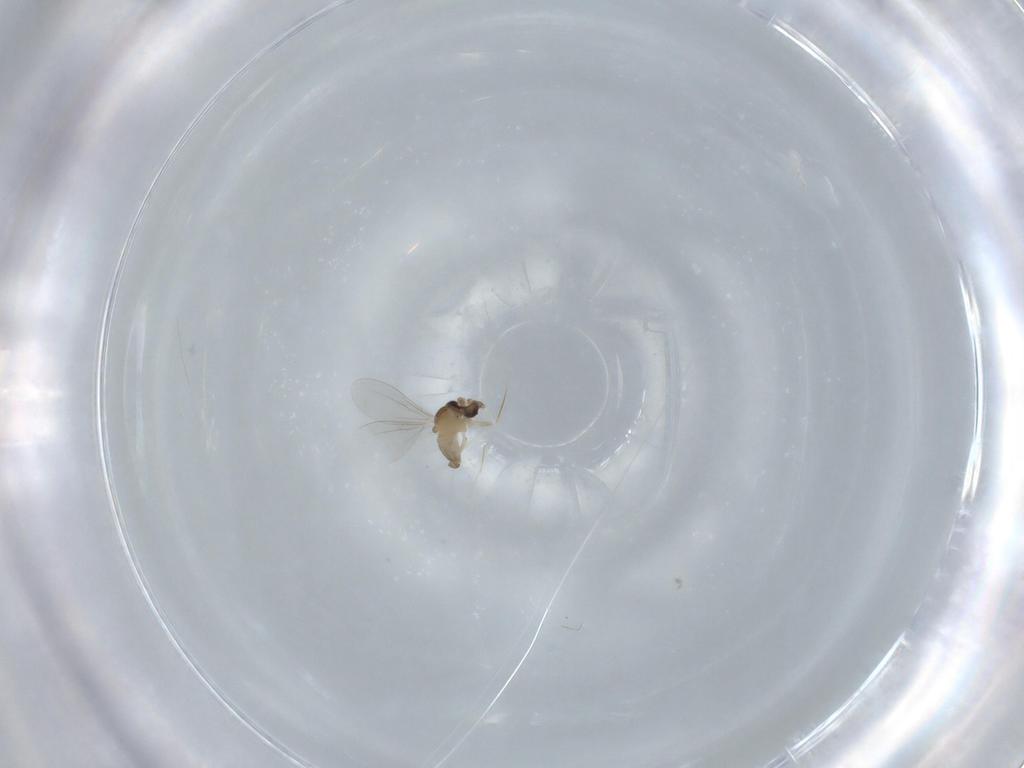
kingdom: Animalia
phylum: Arthropoda
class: Insecta
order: Diptera
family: Cecidomyiidae
